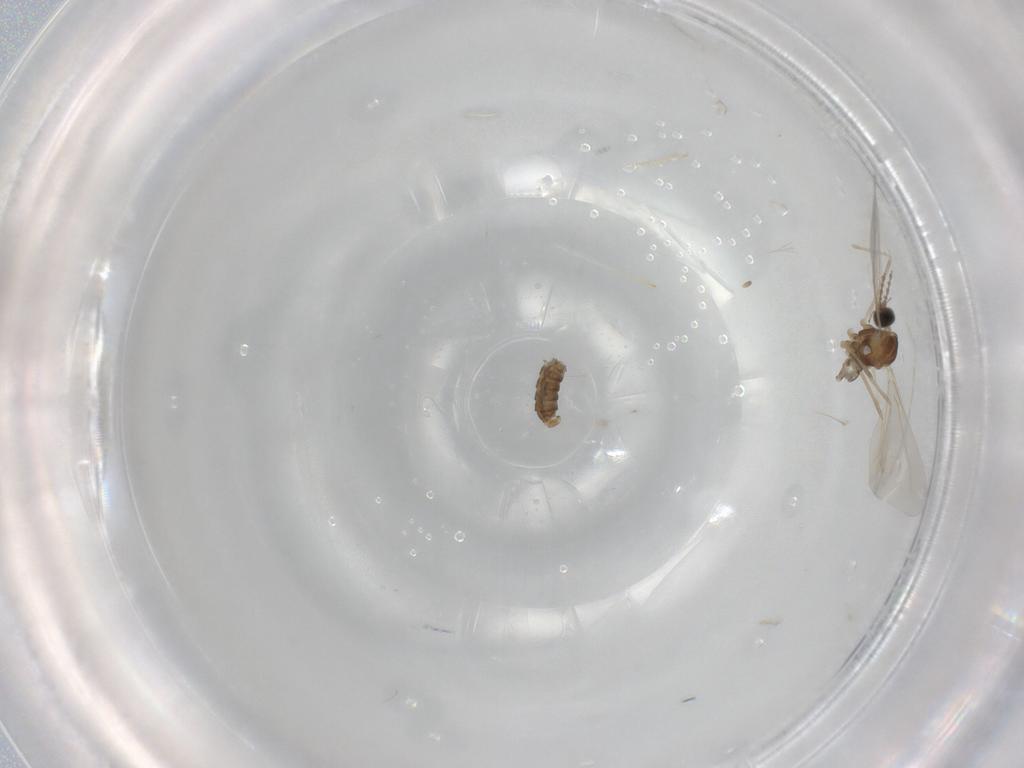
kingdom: Animalia
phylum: Arthropoda
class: Insecta
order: Diptera
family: Cecidomyiidae
